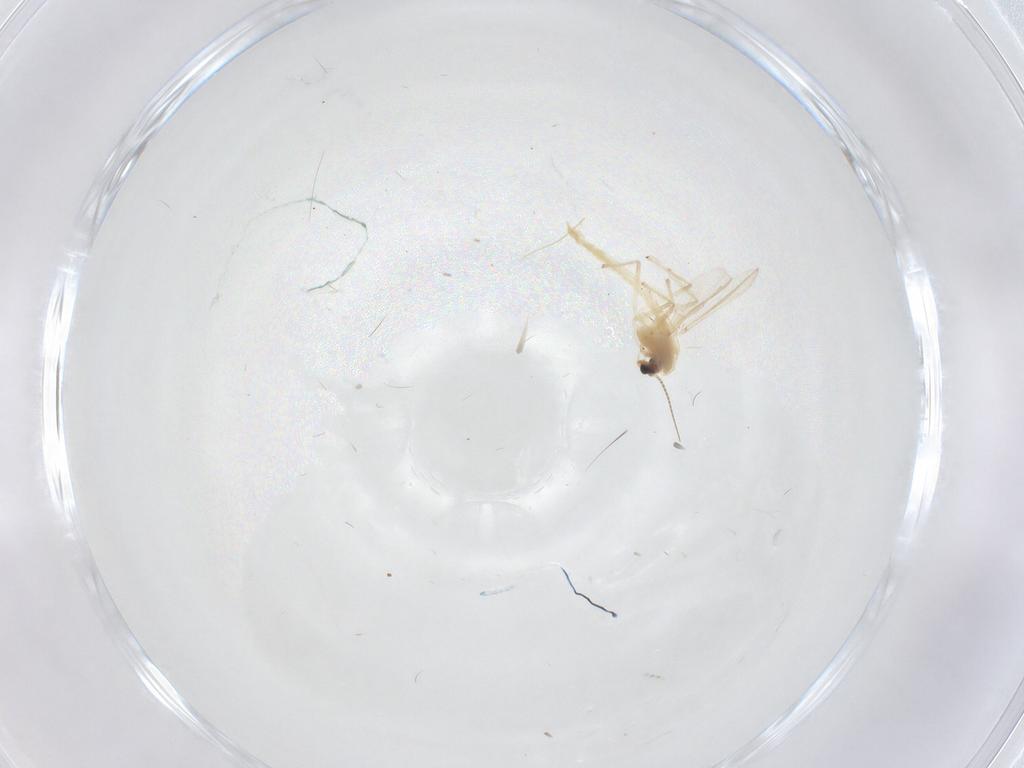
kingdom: Animalia
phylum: Arthropoda
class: Insecta
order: Diptera
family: Chironomidae
